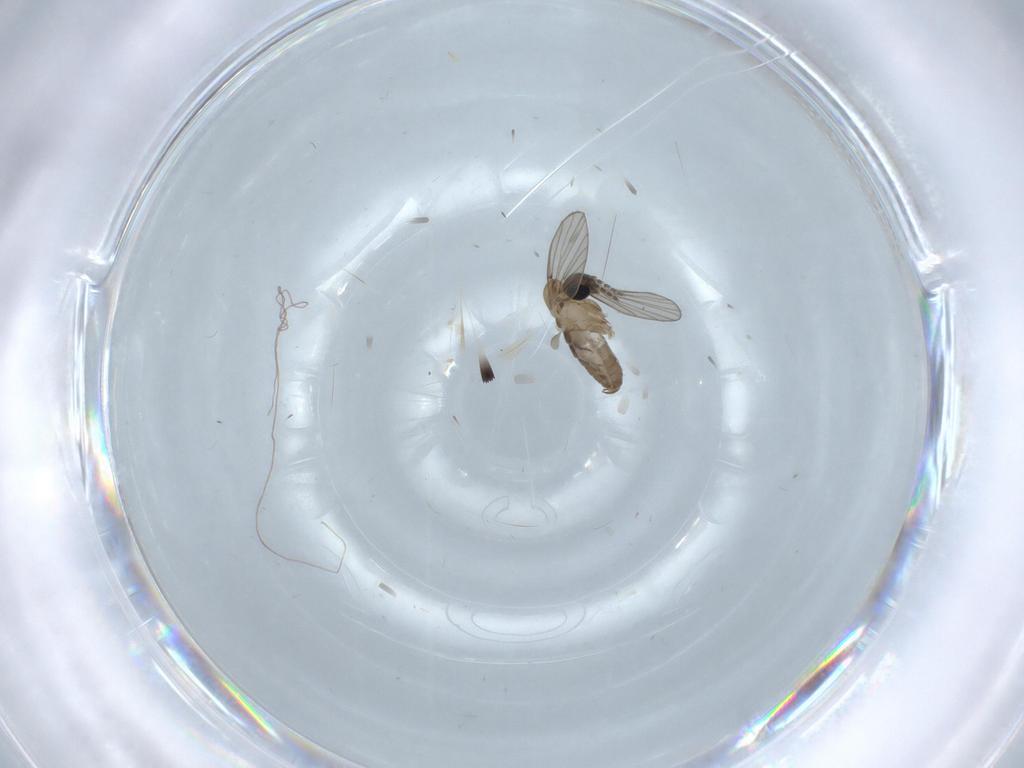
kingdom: Animalia
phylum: Arthropoda
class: Insecta
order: Diptera
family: Psychodidae
